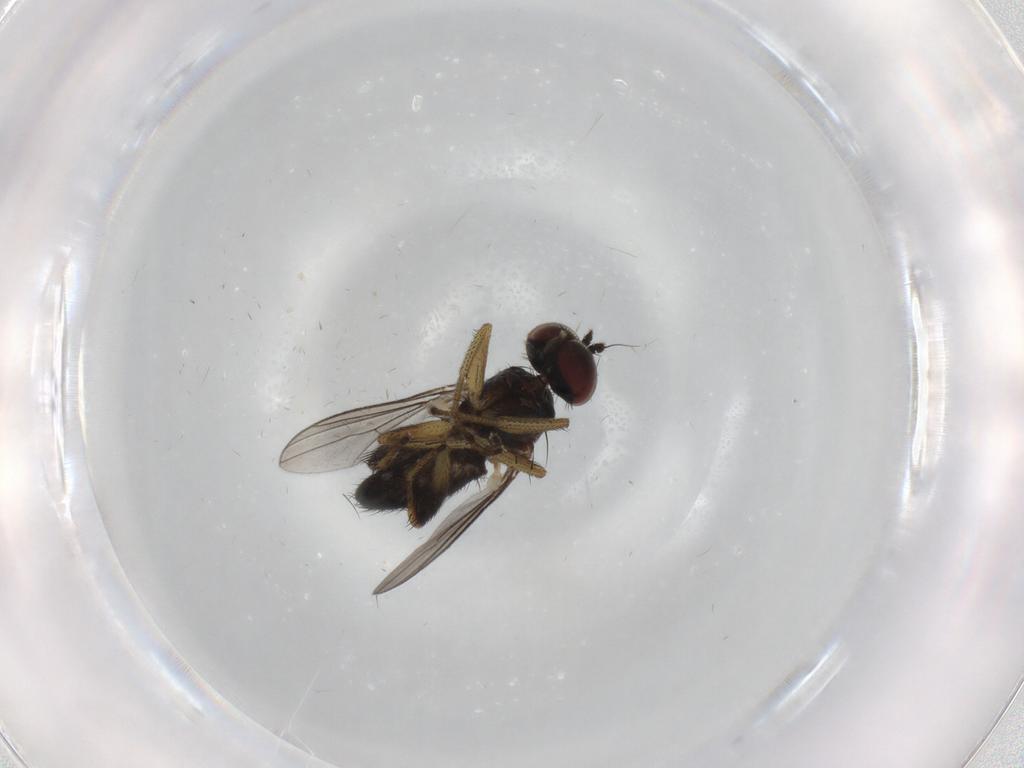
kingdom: Animalia
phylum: Arthropoda
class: Insecta
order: Diptera
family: Dolichopodidae
